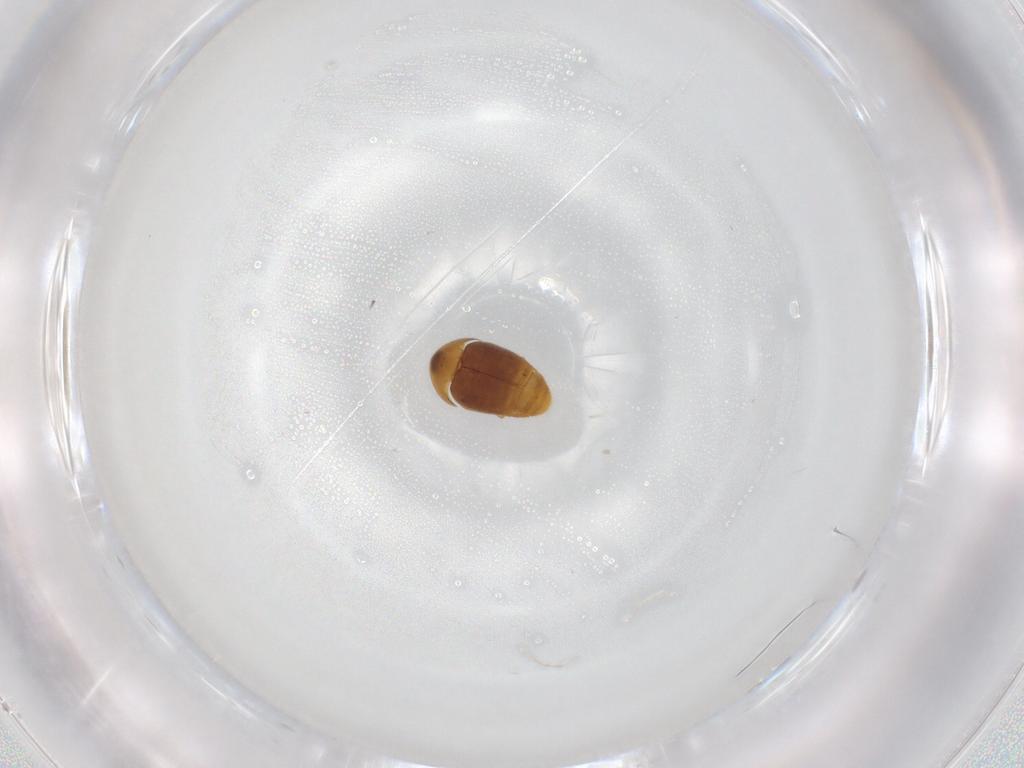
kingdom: Animalia
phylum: Arthropoda
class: Insecta
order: Coleoptera
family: Corylophidae
